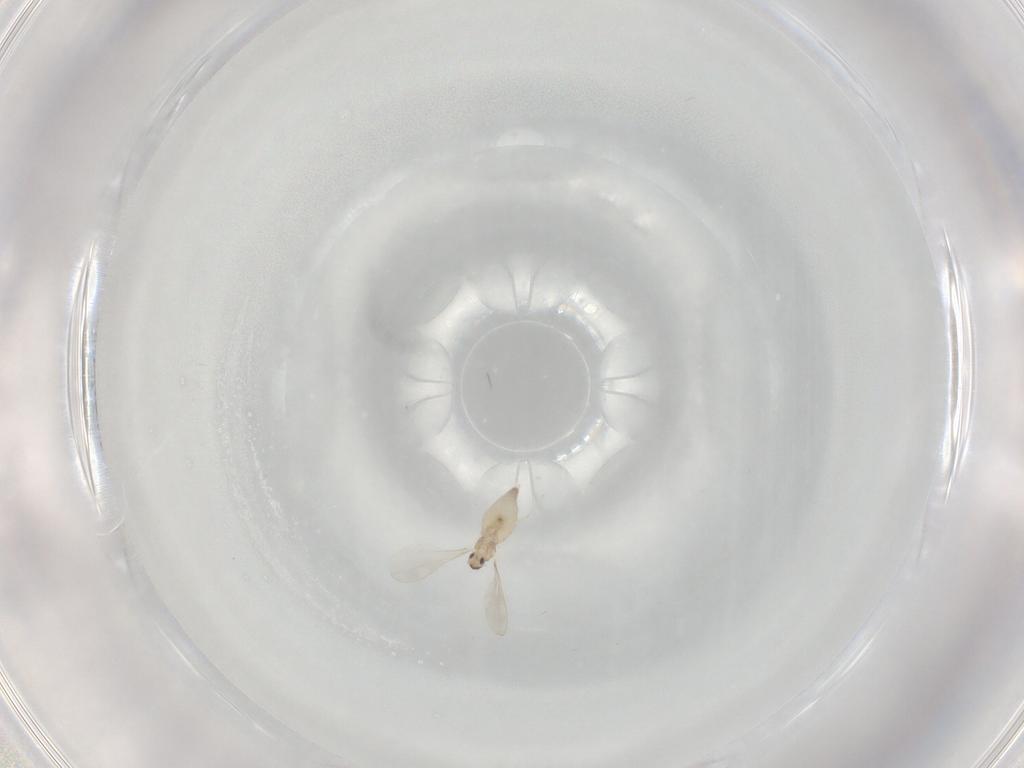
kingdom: Animalia
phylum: Arthropoda
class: Insecta
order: Diptera
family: Cecidomyiidae
